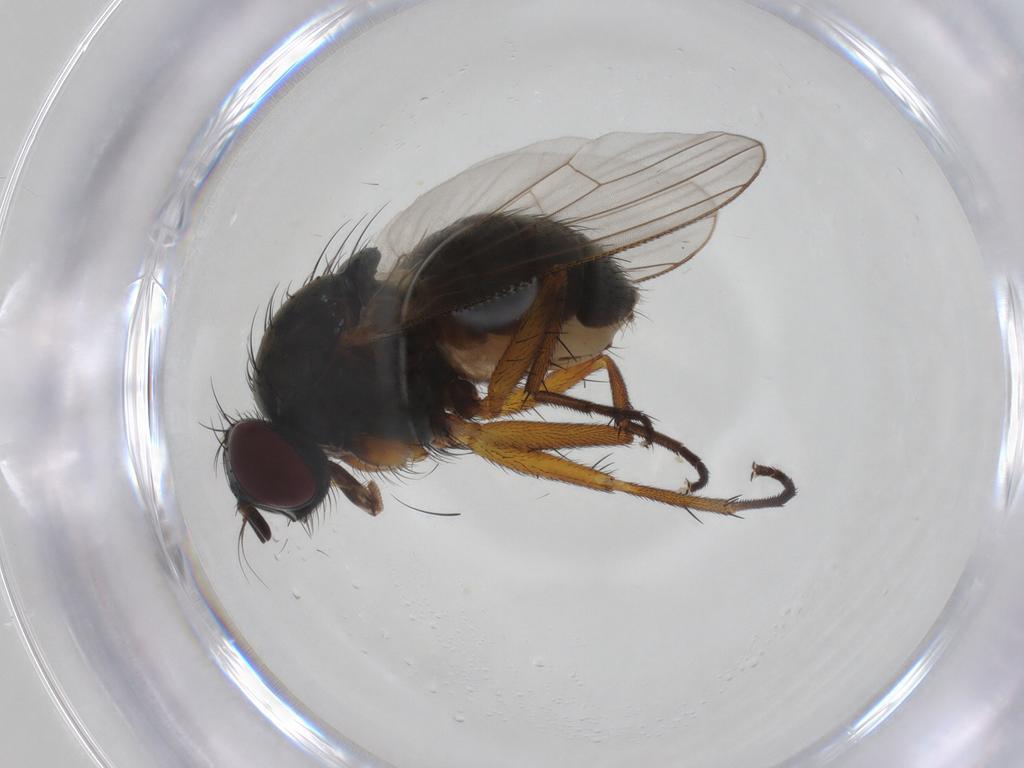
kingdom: Animalia
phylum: Arthropoda
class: Insecta
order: Diptera
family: Muscidae
